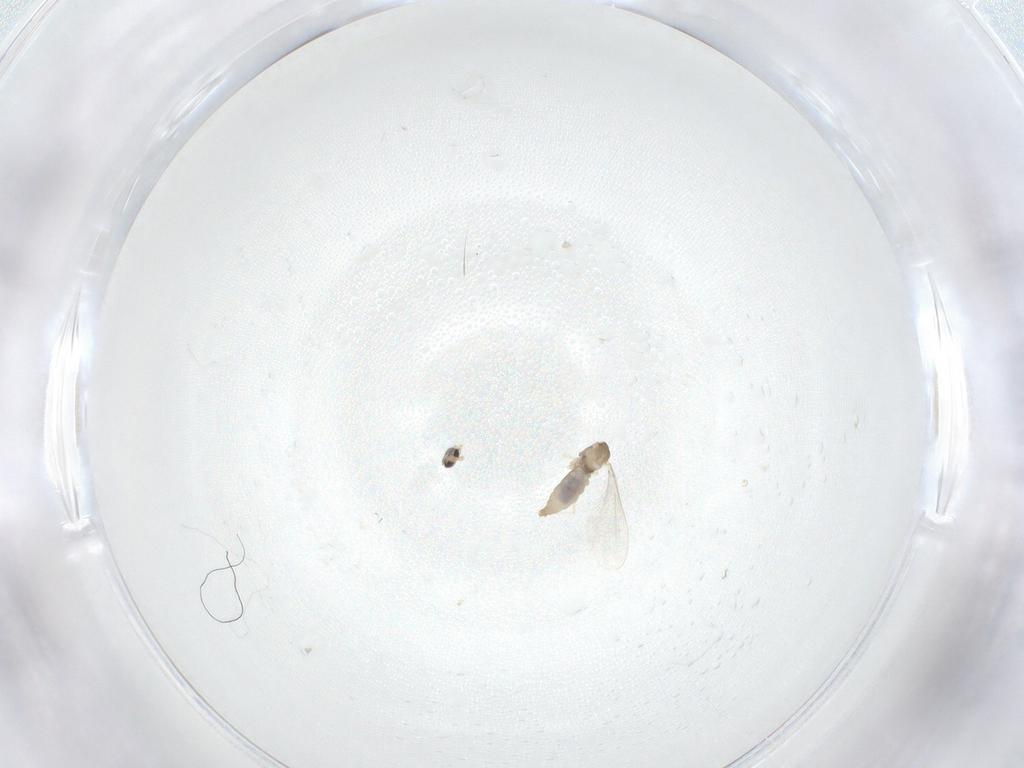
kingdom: Animalia
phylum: Arthropoda
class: Insecta
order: Diptera
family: Cecidomyiidae
